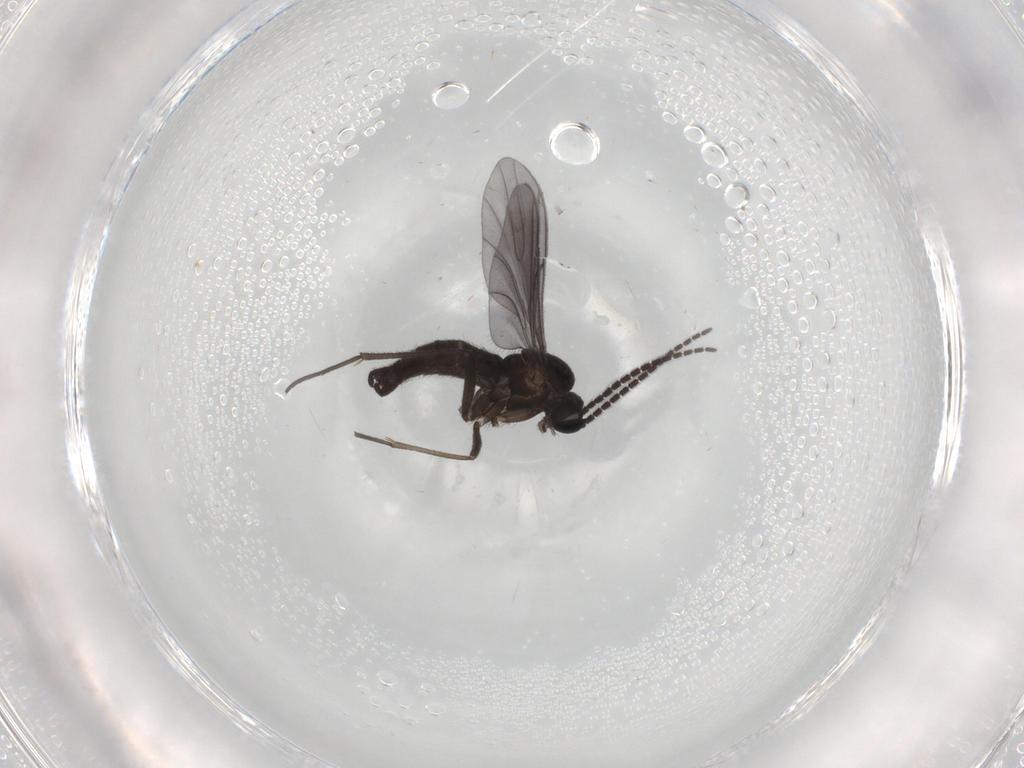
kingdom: Animalia
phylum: Arthropoda
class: Insecta
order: Diptera
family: Sciaridae
